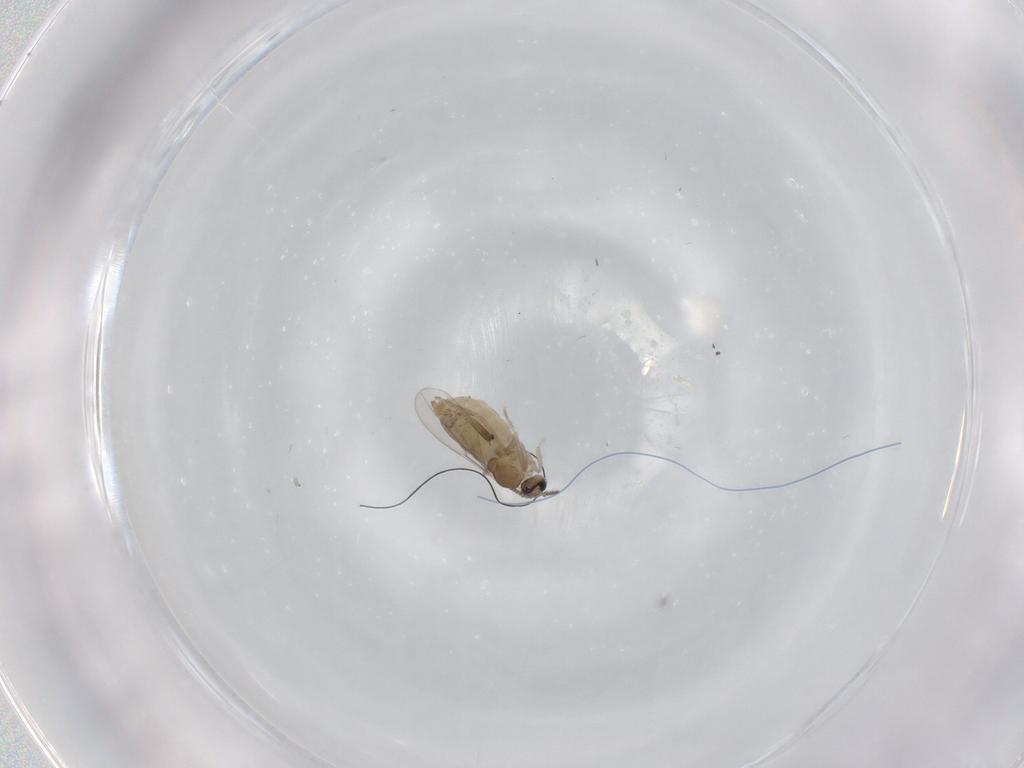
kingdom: Animalia
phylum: Arthropoda
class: Insecta
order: Diptera
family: Cecidomyiidae
